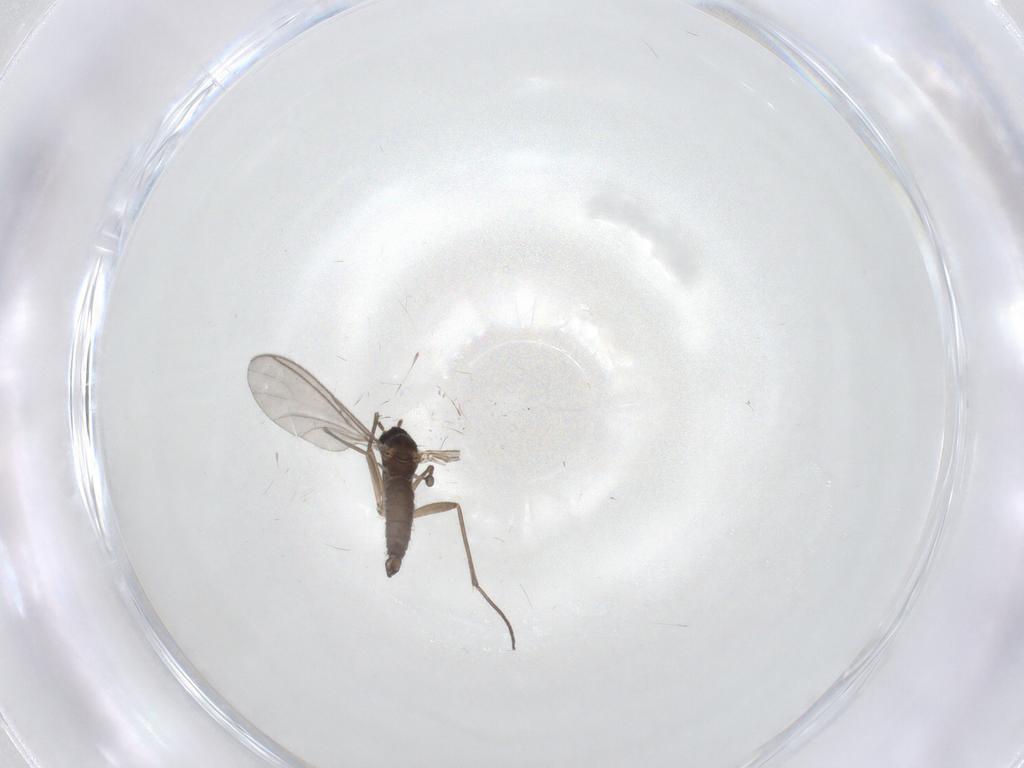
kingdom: Animalia
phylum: Arthropoda
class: Insecta
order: Diptera
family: Sciaridae
